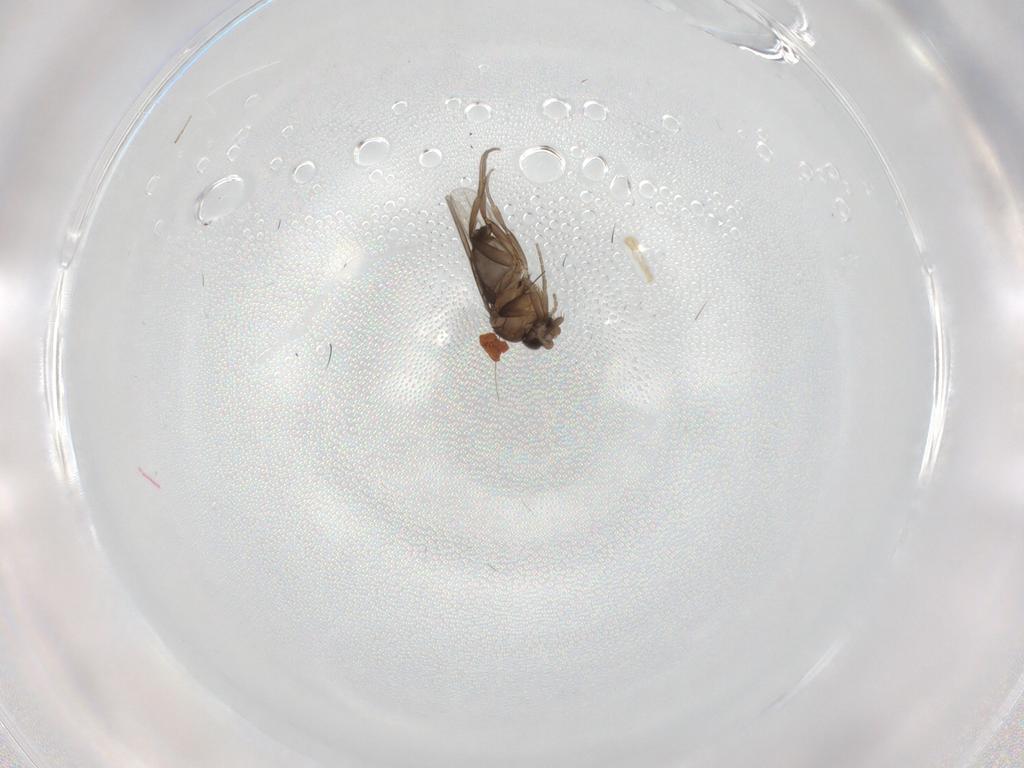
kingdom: Animalia
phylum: Arthropoda
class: Insecta
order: Diptera
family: Phoridae
